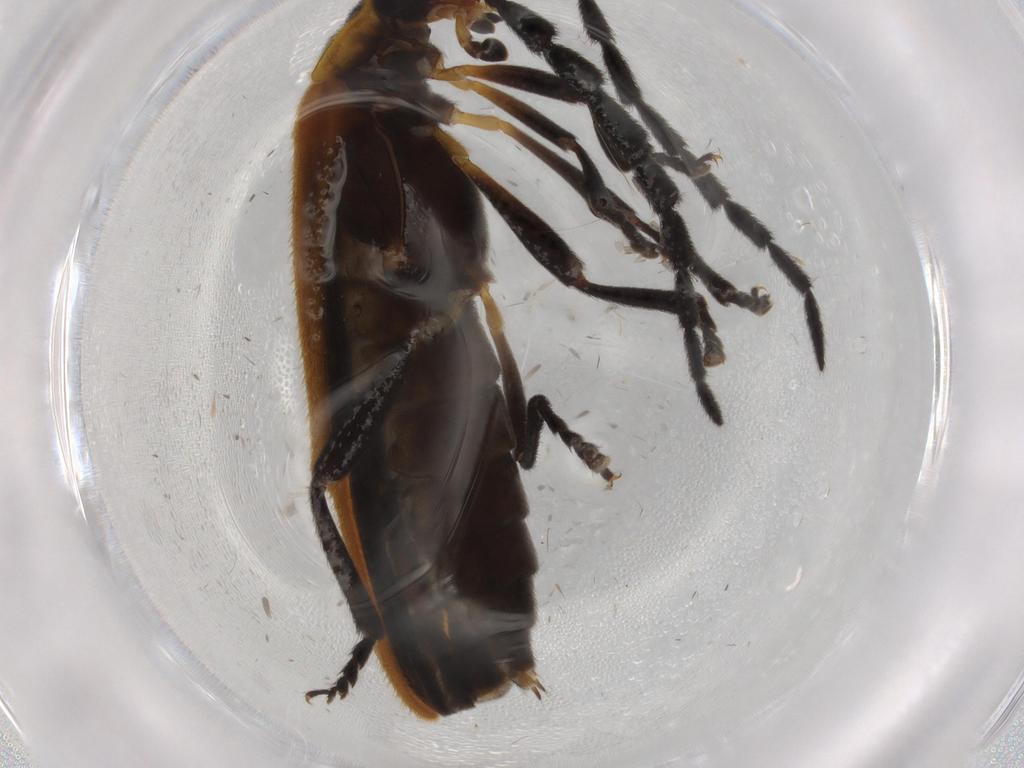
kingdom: Animalia
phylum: Arthropoda
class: Insecta
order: Coleoptera
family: Lycidae
